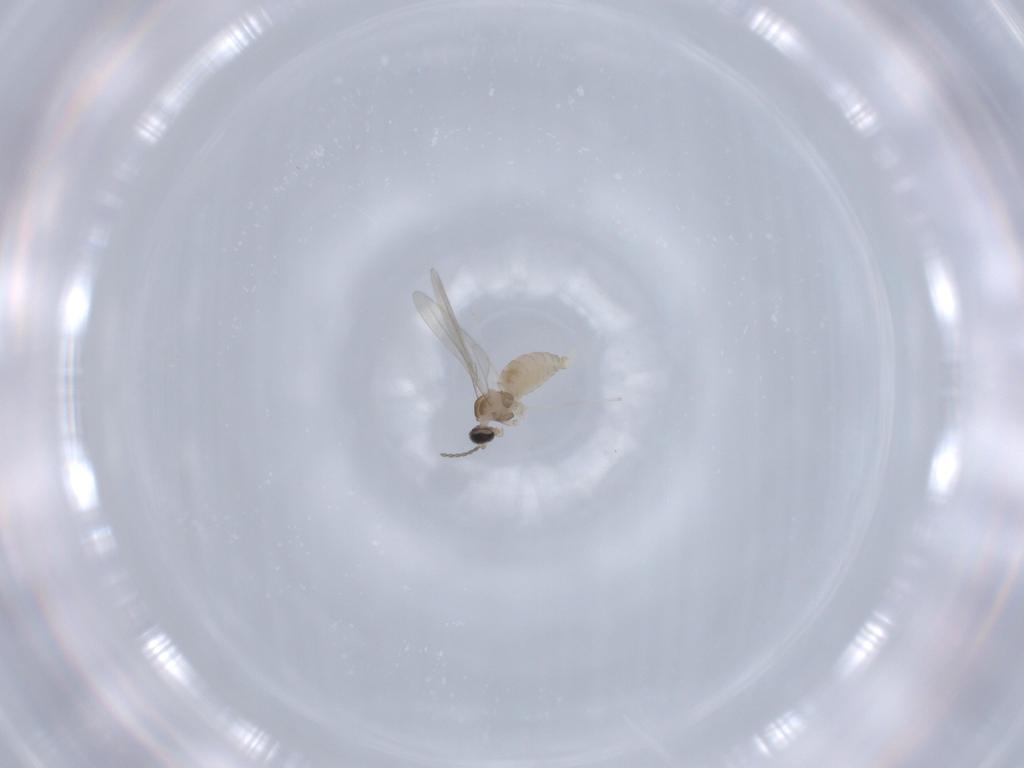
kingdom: Animalia
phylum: Arthropoda
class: Insecta
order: Diptera
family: Cecidomyiidae
